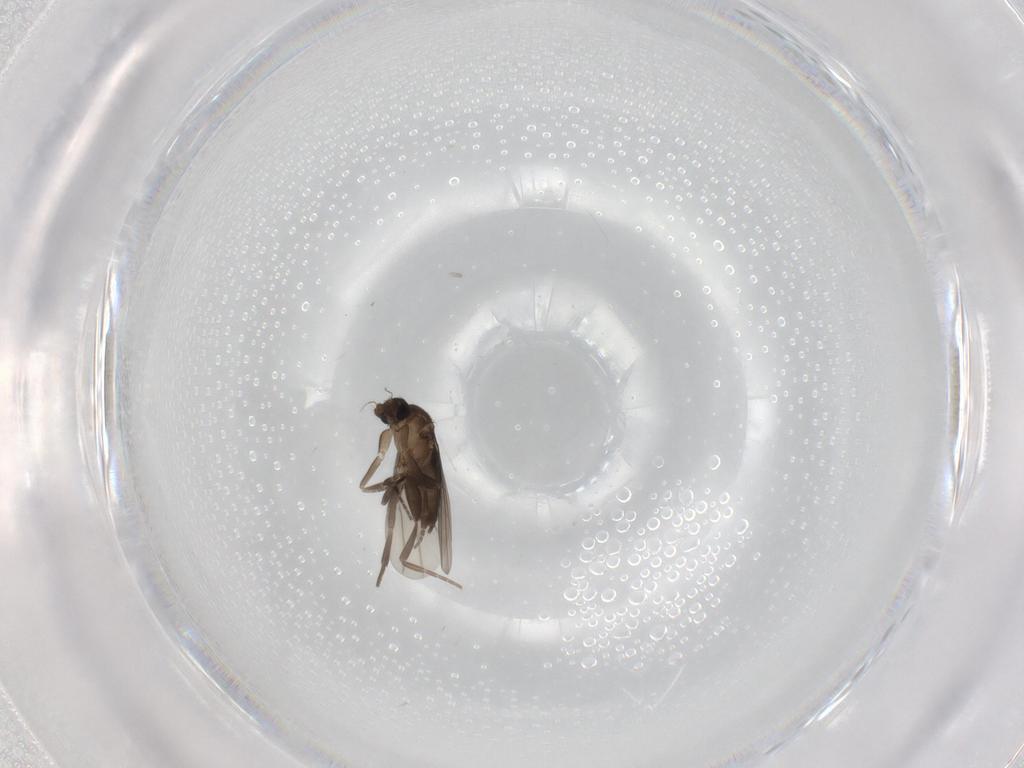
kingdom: Animalia
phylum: Arthropoda
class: Insecta
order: Diptera
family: Phoridae
